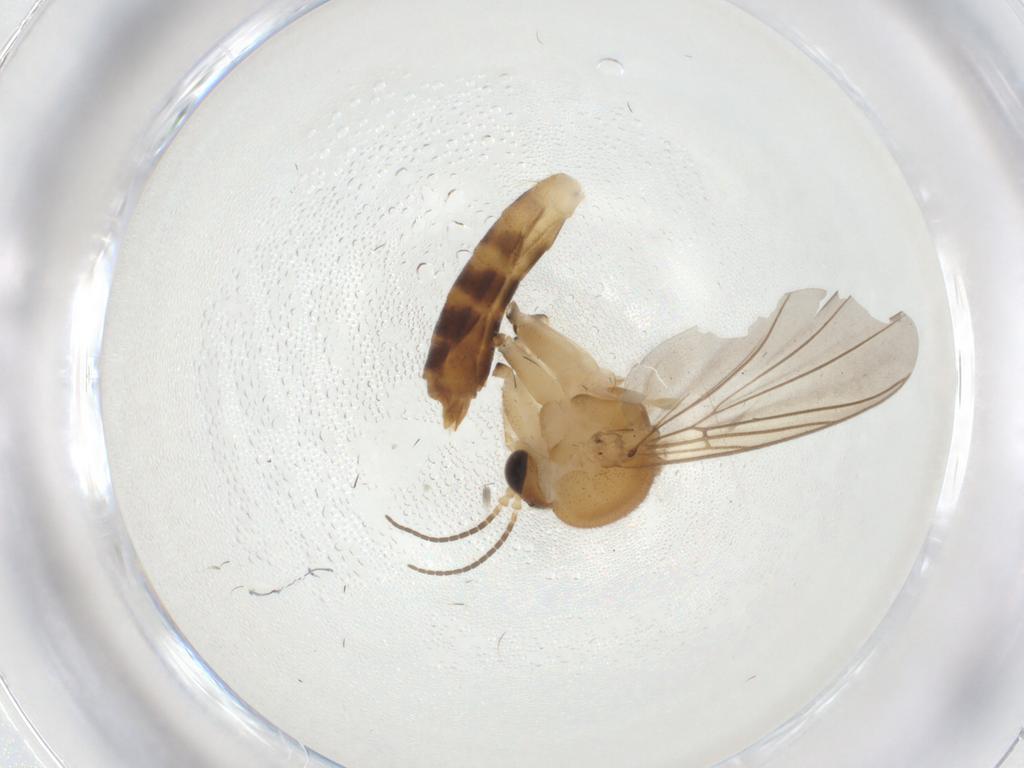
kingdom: Animalia
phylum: Arthropoda
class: Insecta
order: Diptera
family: Mycetophilidae
